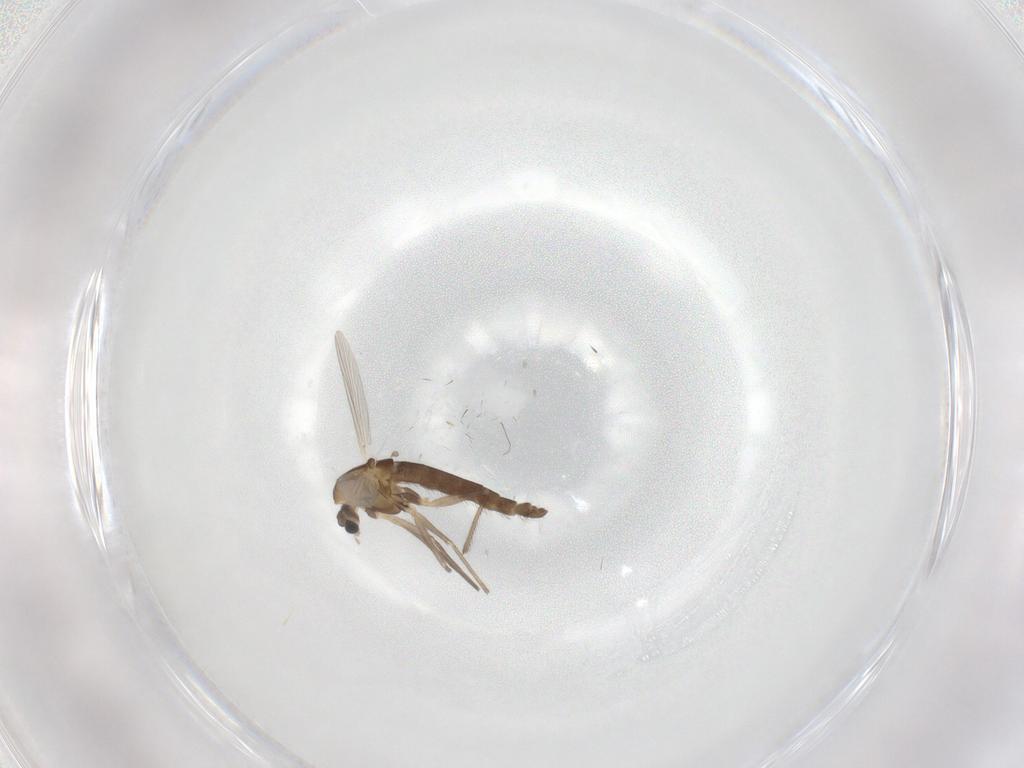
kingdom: Animalia
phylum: Arthropoda
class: Insecta
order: Diptera
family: Chironomidae
